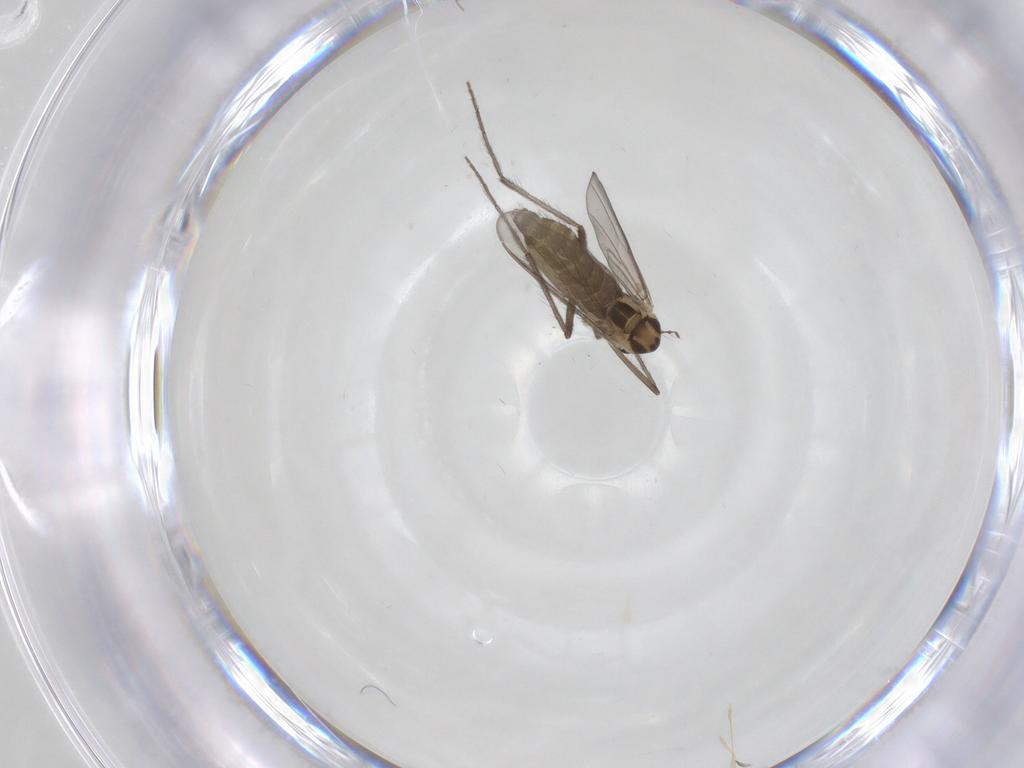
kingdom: Animalia
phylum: Arthropoda
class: Insecta
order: Diptera
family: Chironomidae
